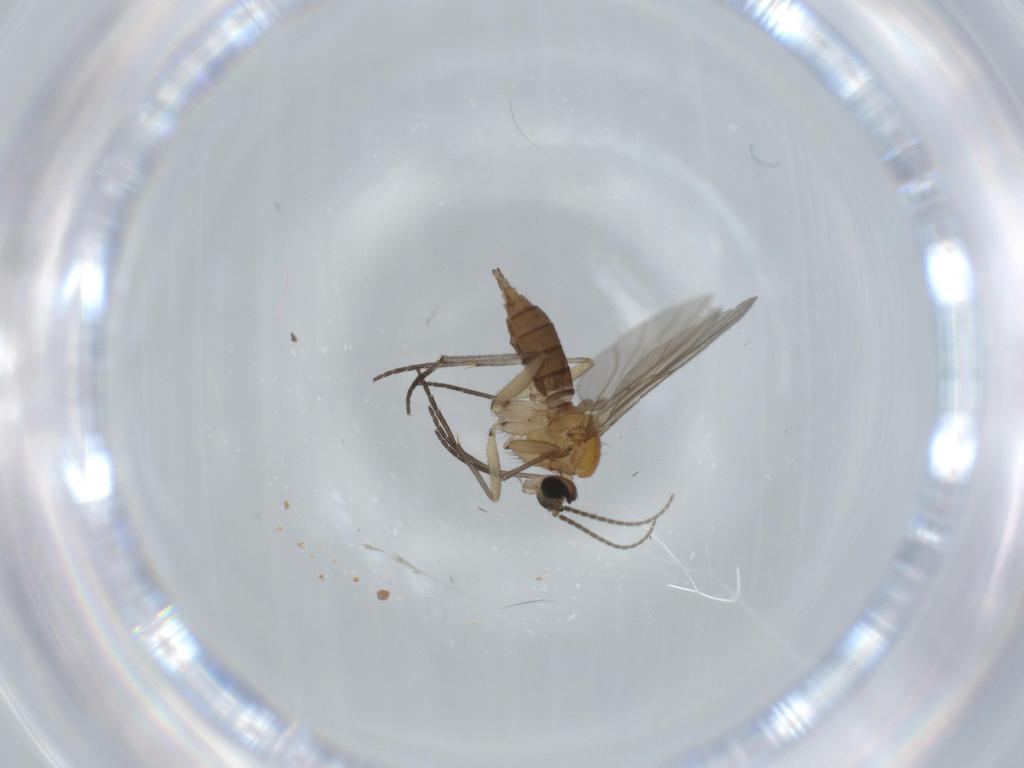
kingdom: Animalia
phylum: Arthropoda
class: Insecta
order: Diptera
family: Sciaridae
